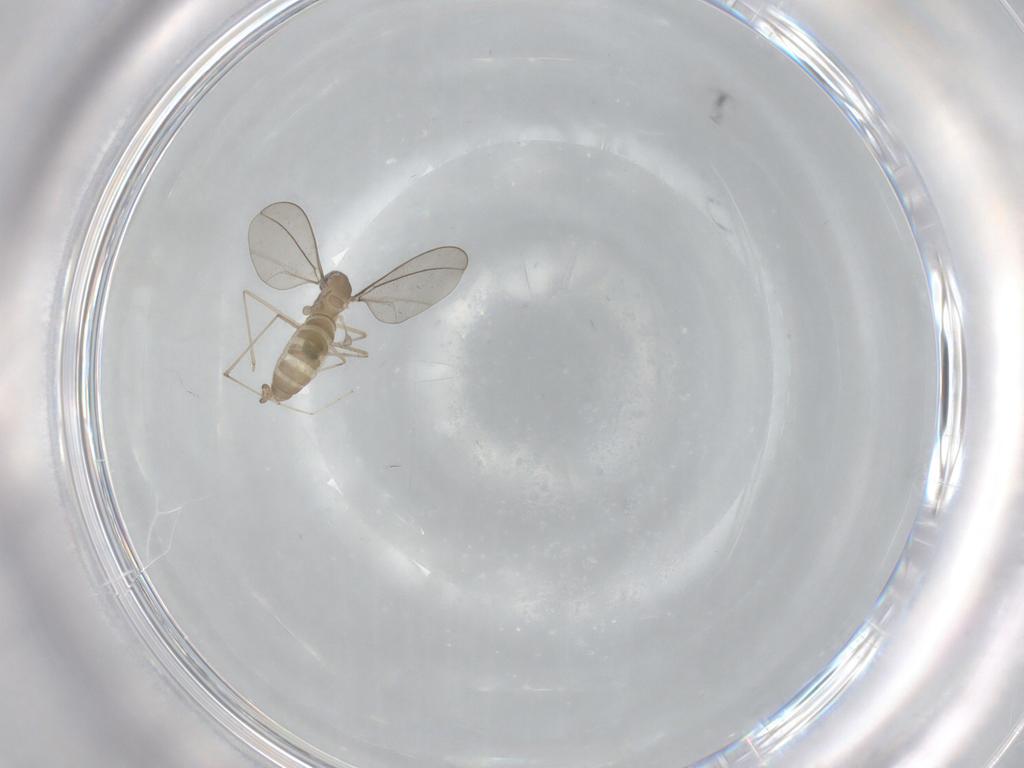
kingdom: Animalia
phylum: Arthropoda
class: Insecta
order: Diptera
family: Cecidomyiidae
